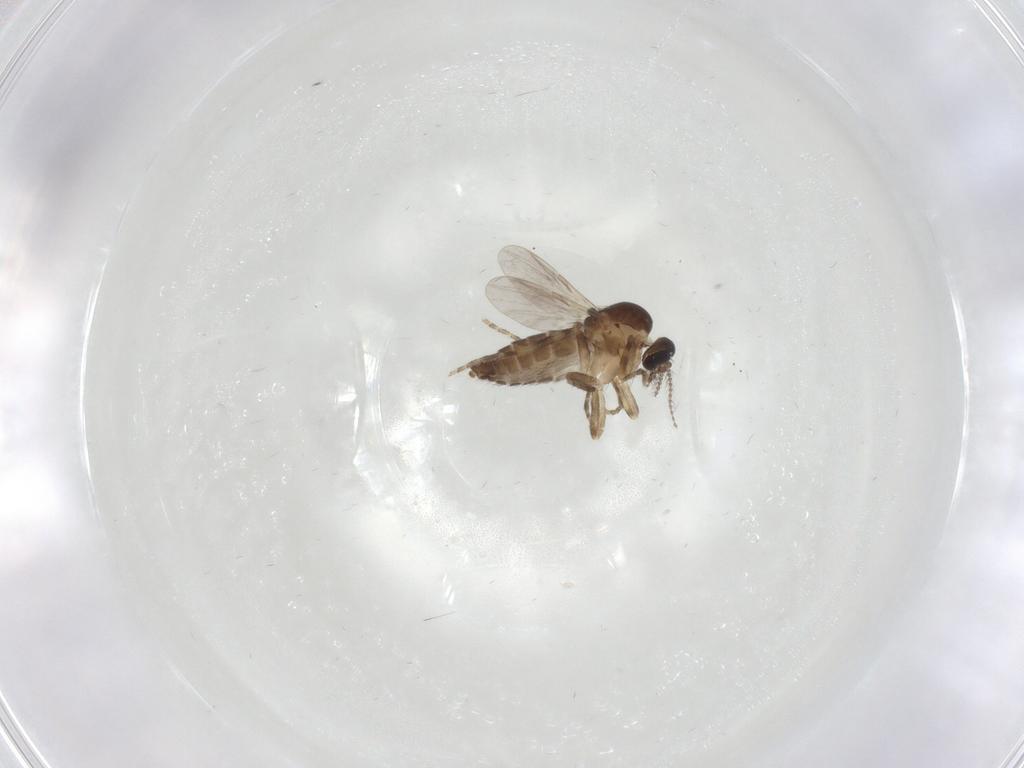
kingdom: Animalia
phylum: Arthropoda
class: Insecta
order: Diptera
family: Ceratopogonidae
